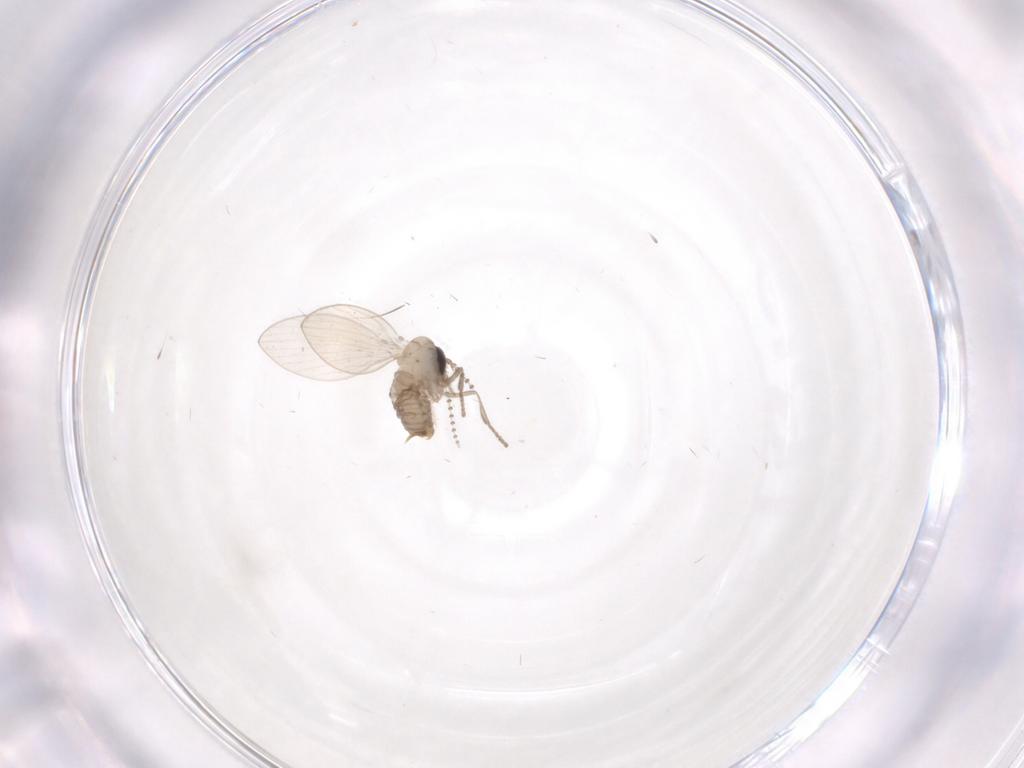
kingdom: Animalia
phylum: Arthropoda
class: Insecta
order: Diptera
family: Psychodidae
